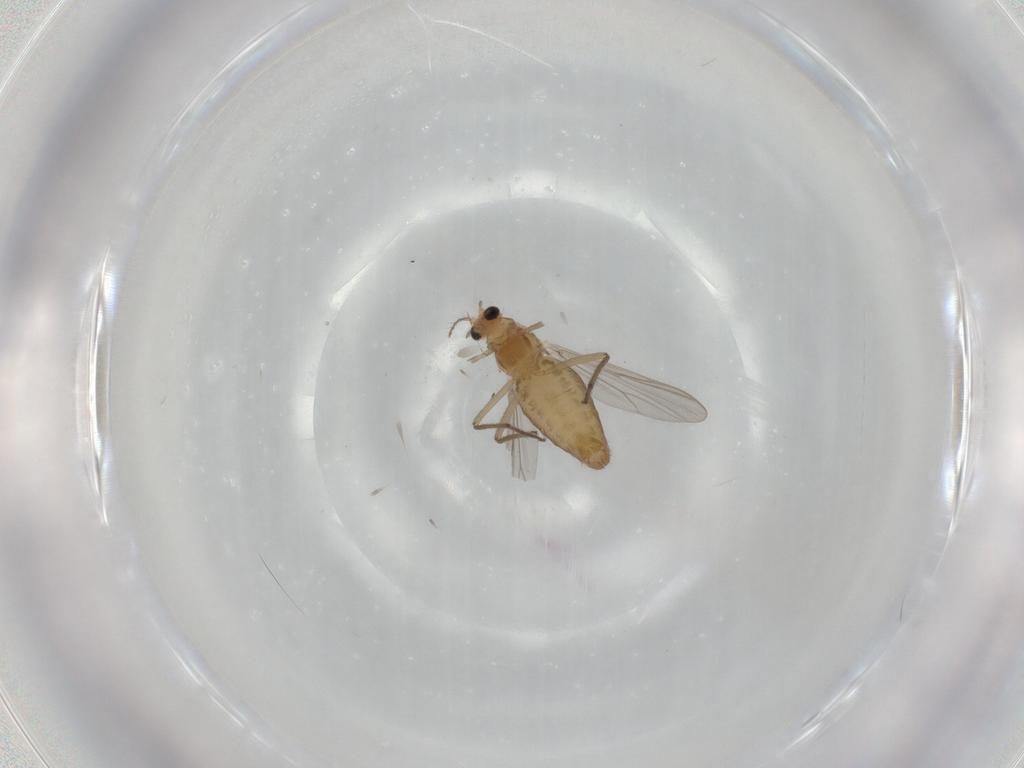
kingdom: Animalia
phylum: Arthropoda
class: Insecta
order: Diptera
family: Chironomidae
